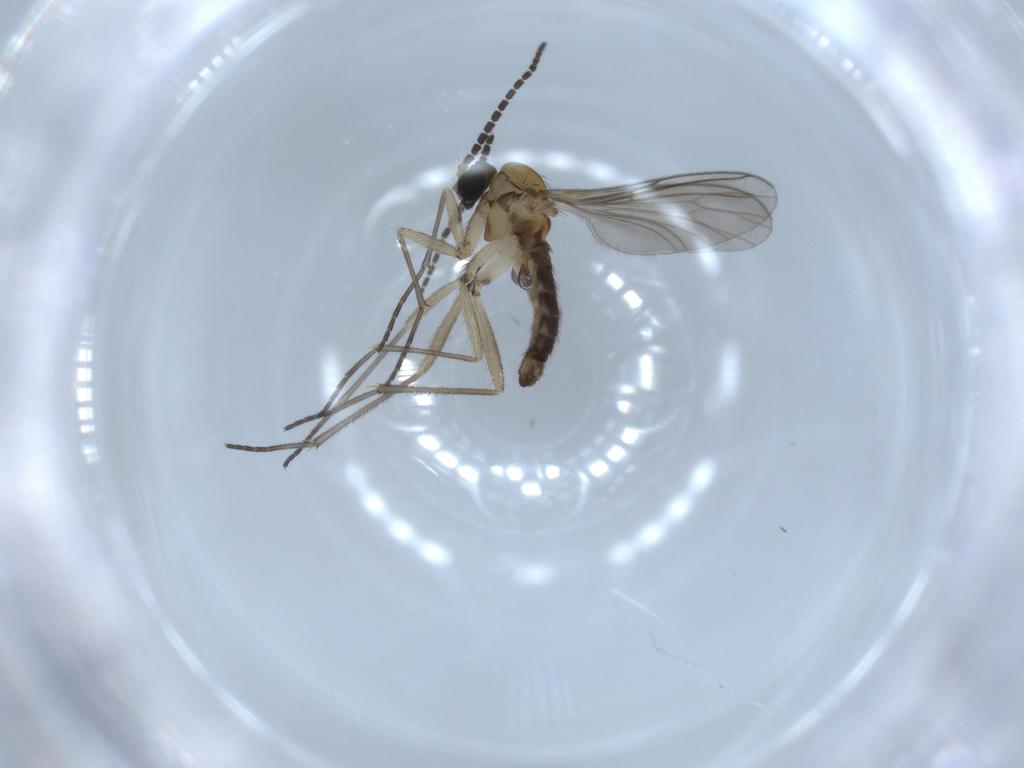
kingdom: Animalia
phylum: Arthropoda
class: Insecta
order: Diptera
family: Sciaridae
